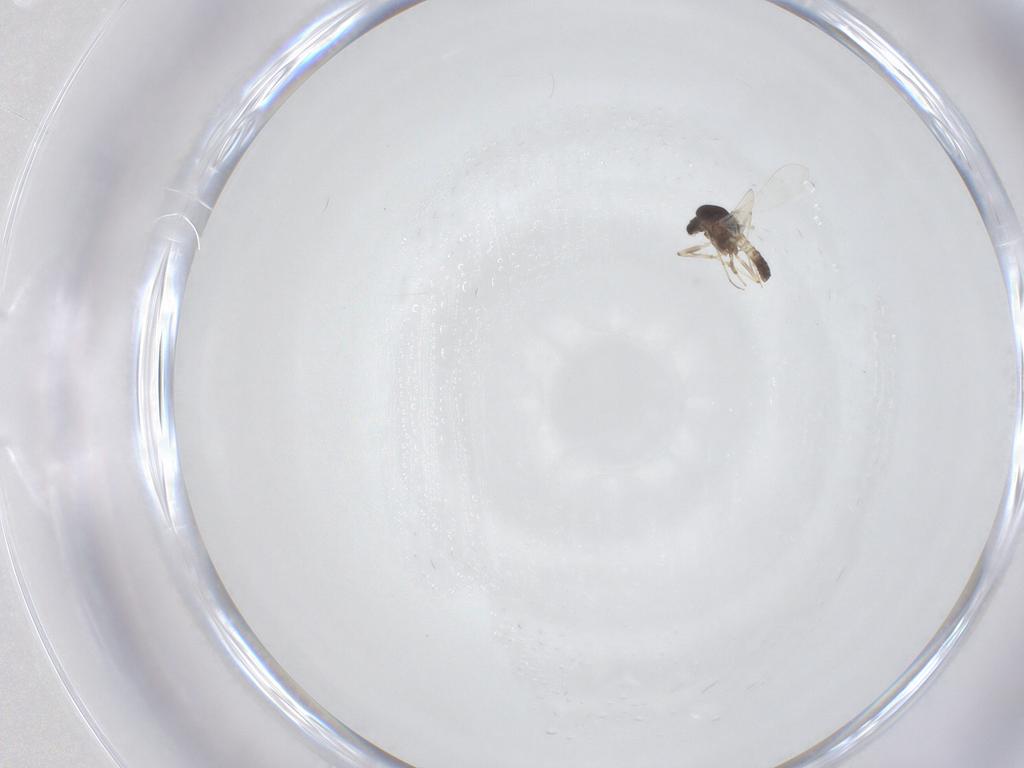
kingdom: Animalia
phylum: Arthropoda
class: Insecta
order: Diptera
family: Chironomidae
